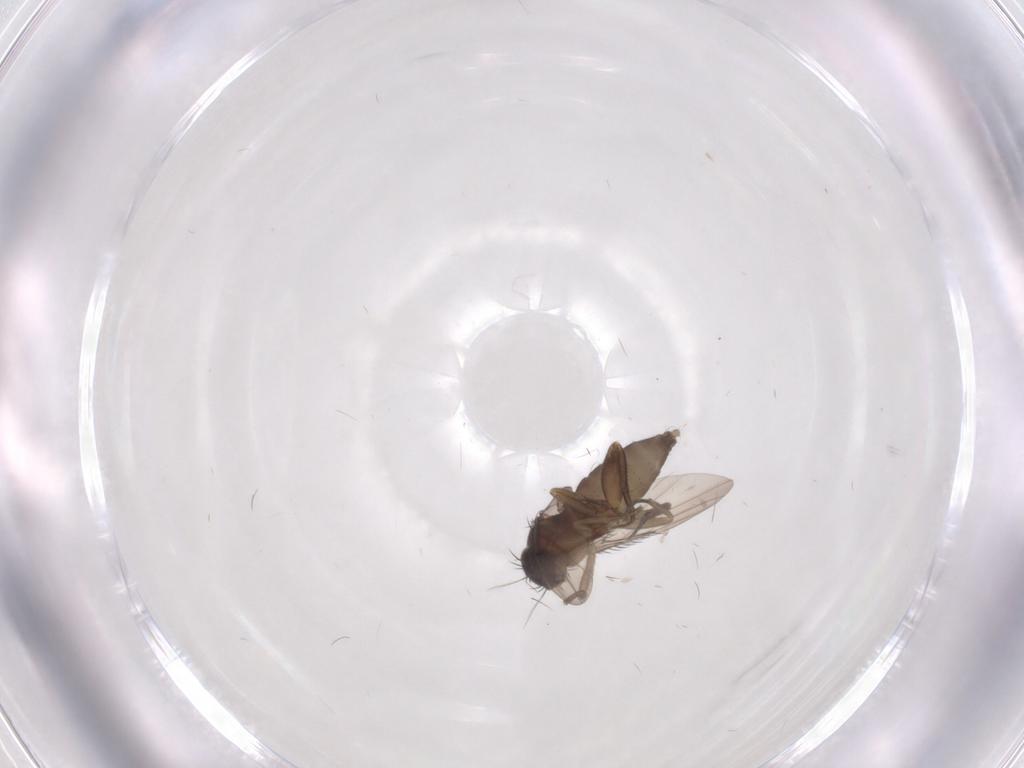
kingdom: Animalia
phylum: Arthropoda
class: Insecta
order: Diptera
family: Phoridae
